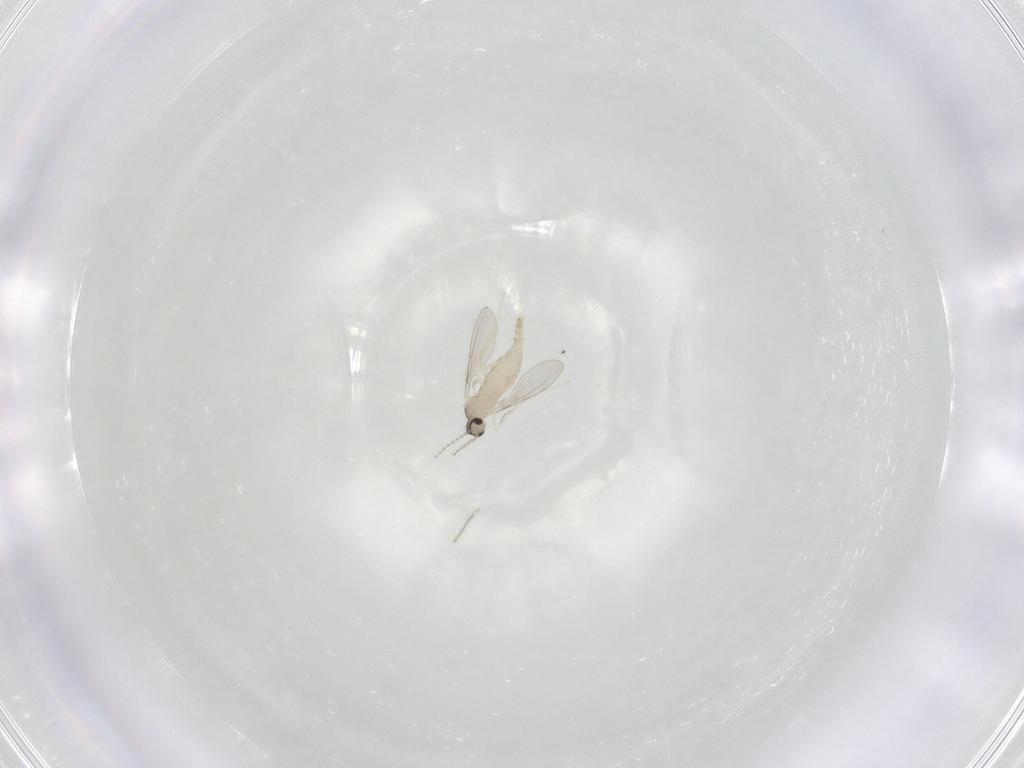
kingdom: Animalia
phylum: Arthropoda
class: Insecta
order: Diptera
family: Cecidomyiidae
